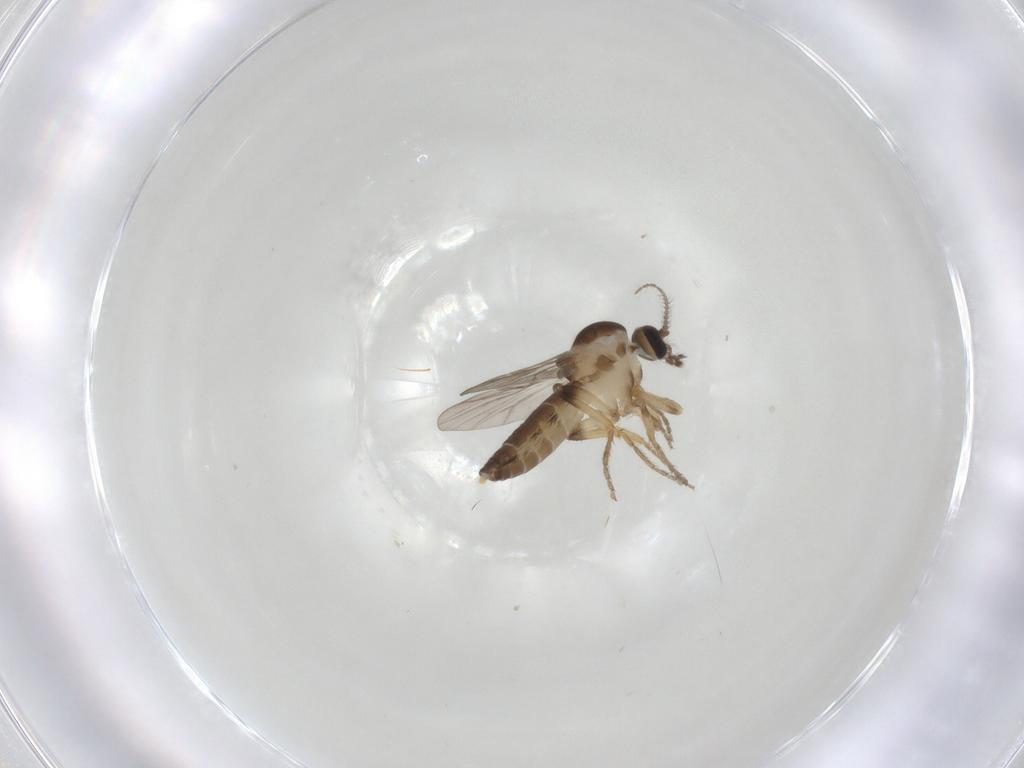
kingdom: Animalia
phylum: Arthropoda
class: Insecta
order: Diptera
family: Ceratopogonidae
